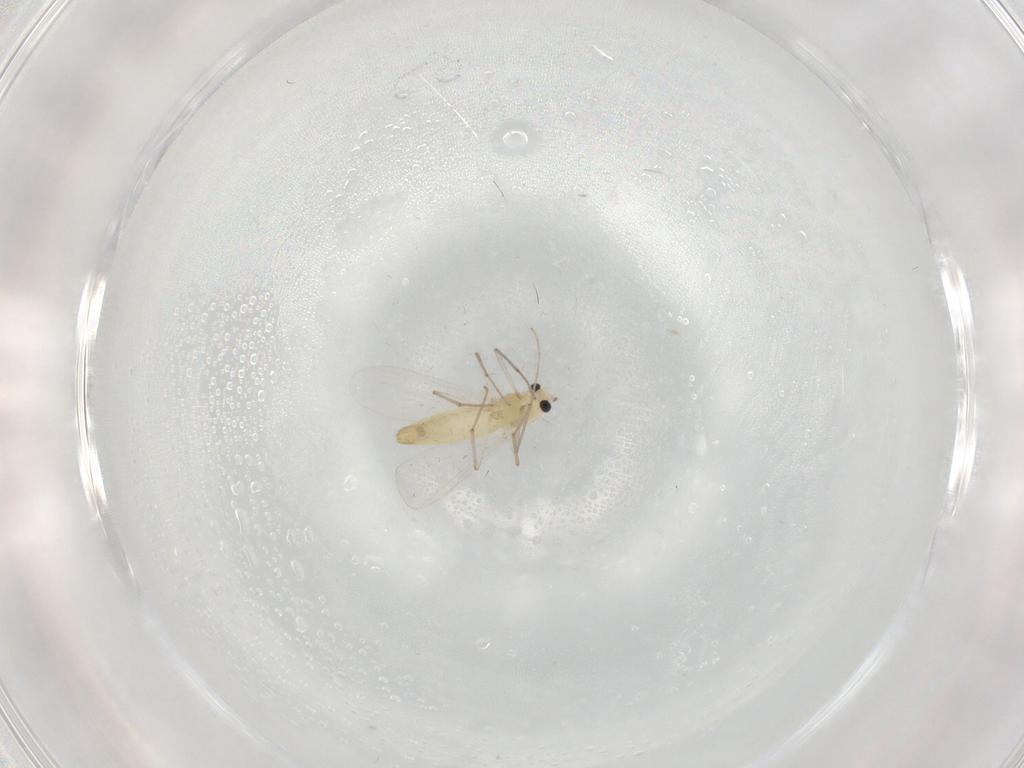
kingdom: Animalia
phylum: Arthropoda
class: Insecta
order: Diptera
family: Chironomidae
